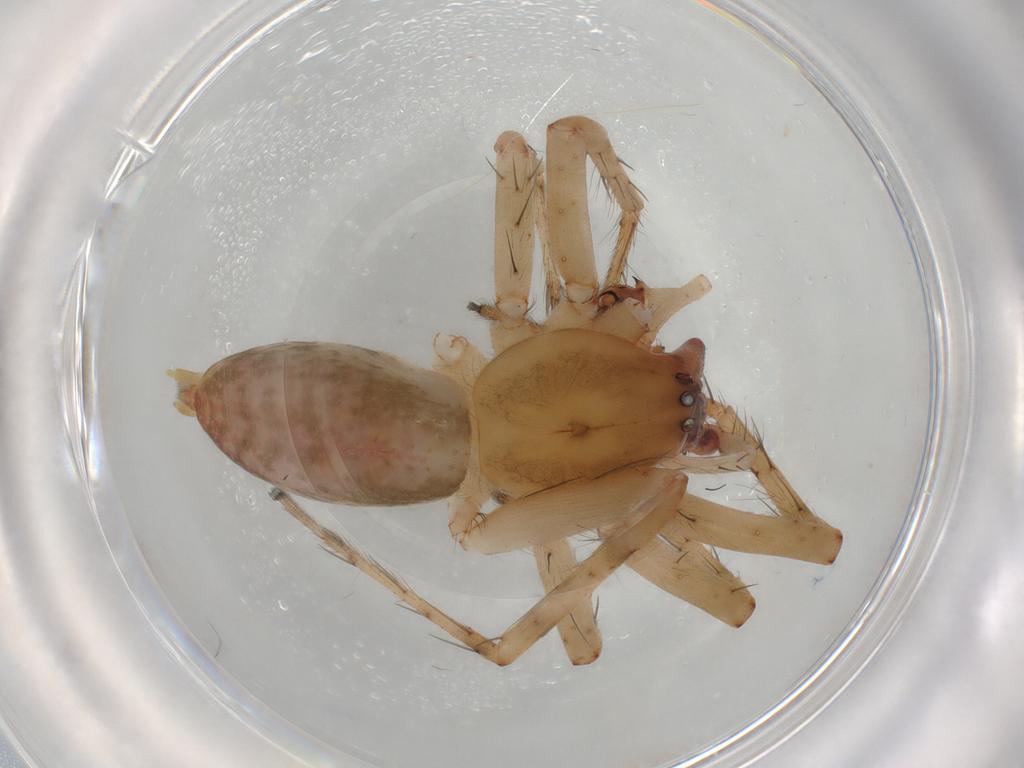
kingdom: Animalia
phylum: Arthropoda
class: Arachnida
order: Araneae
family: Anyphaenidae
